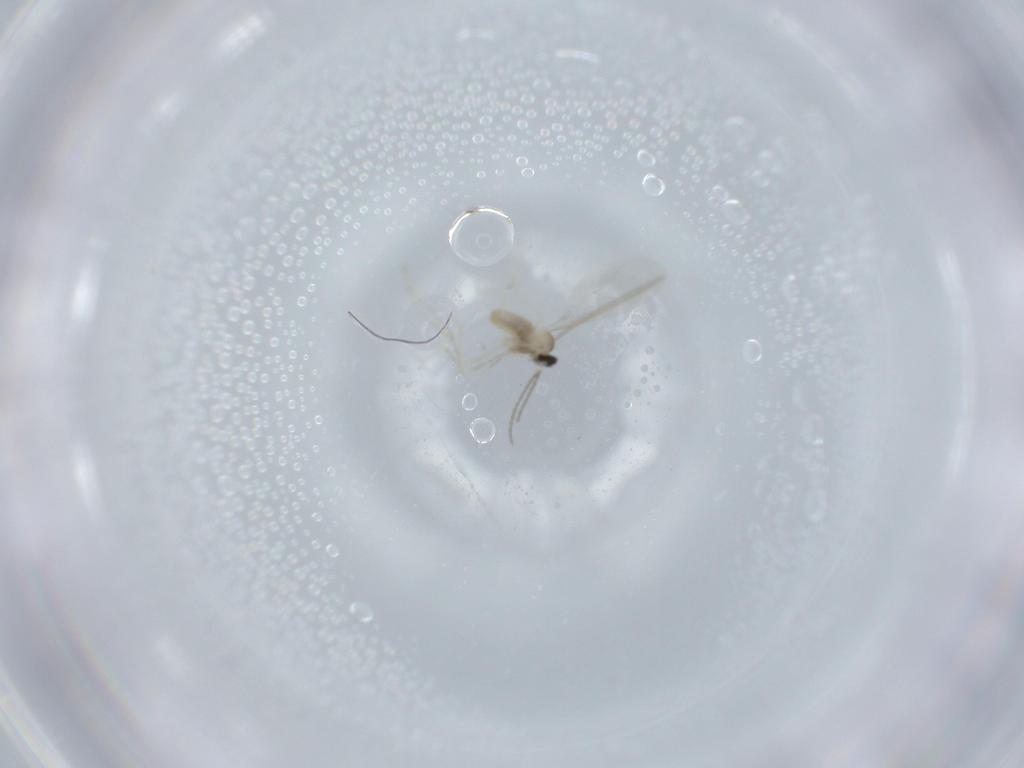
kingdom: Animalia
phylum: Arthropoda
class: Insecta
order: Diptera
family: Cecidomyiidae
